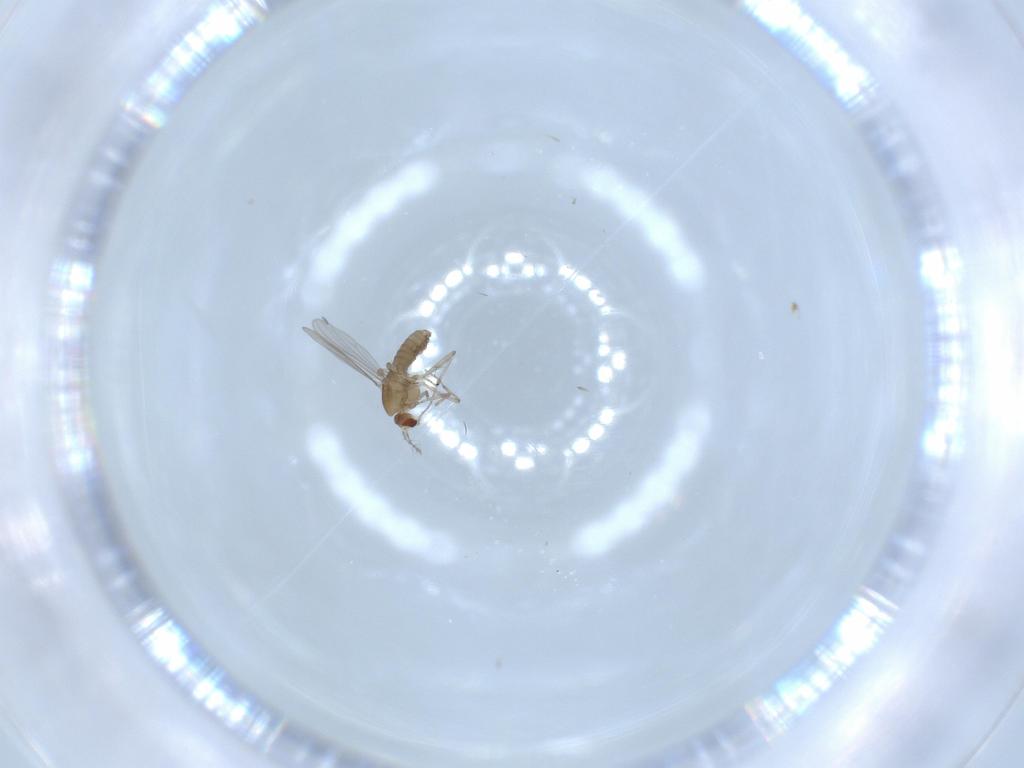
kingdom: Animalia
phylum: Arthropoda
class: Insecta
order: Diptera
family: Chironomidae
